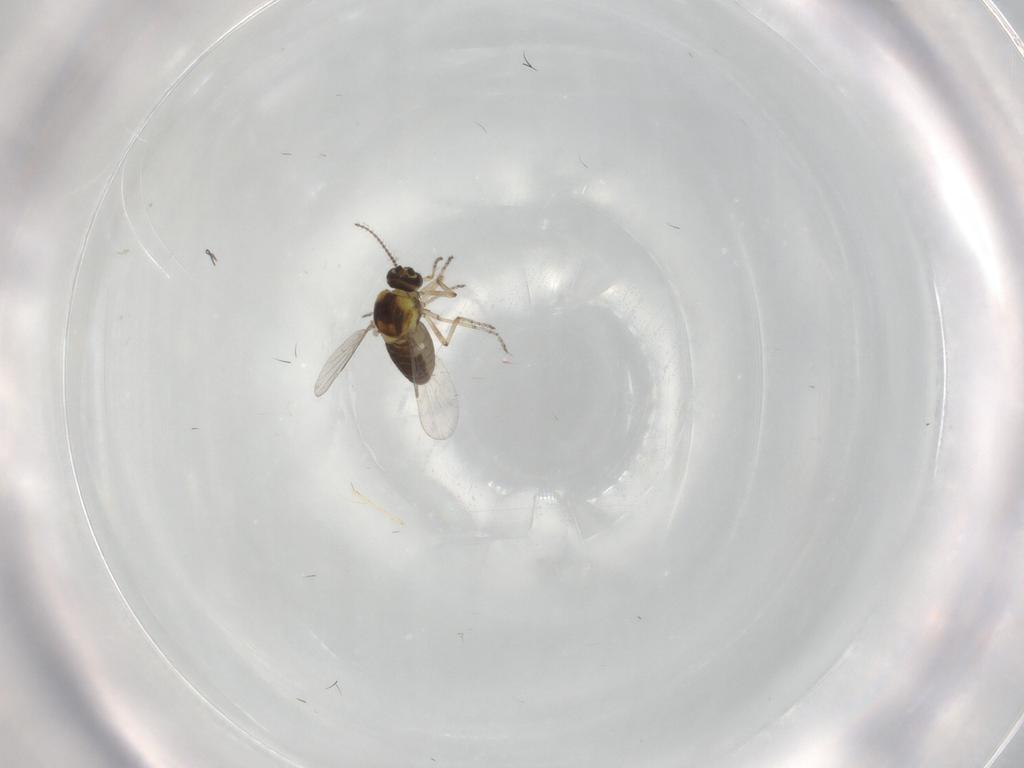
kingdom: Animalia
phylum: Arthropoda
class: Insecta
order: Diptera
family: Ceratopogonidae
